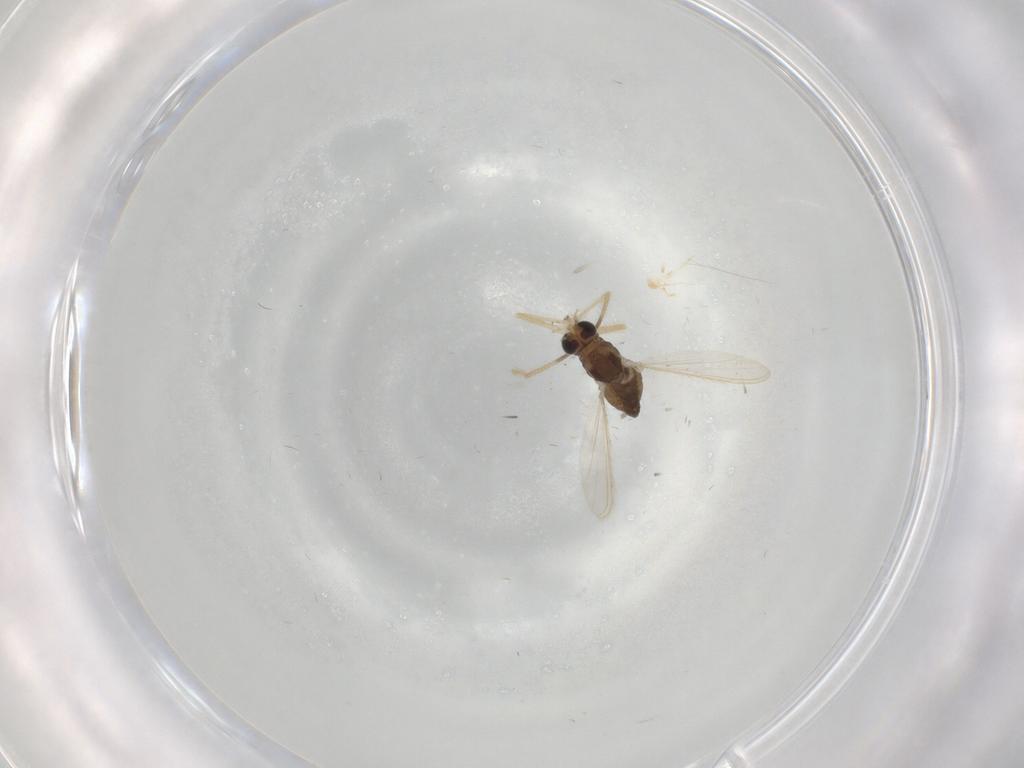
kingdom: Animalia
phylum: Arthropoda
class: Insecta
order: Diptera
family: Chironomidae
